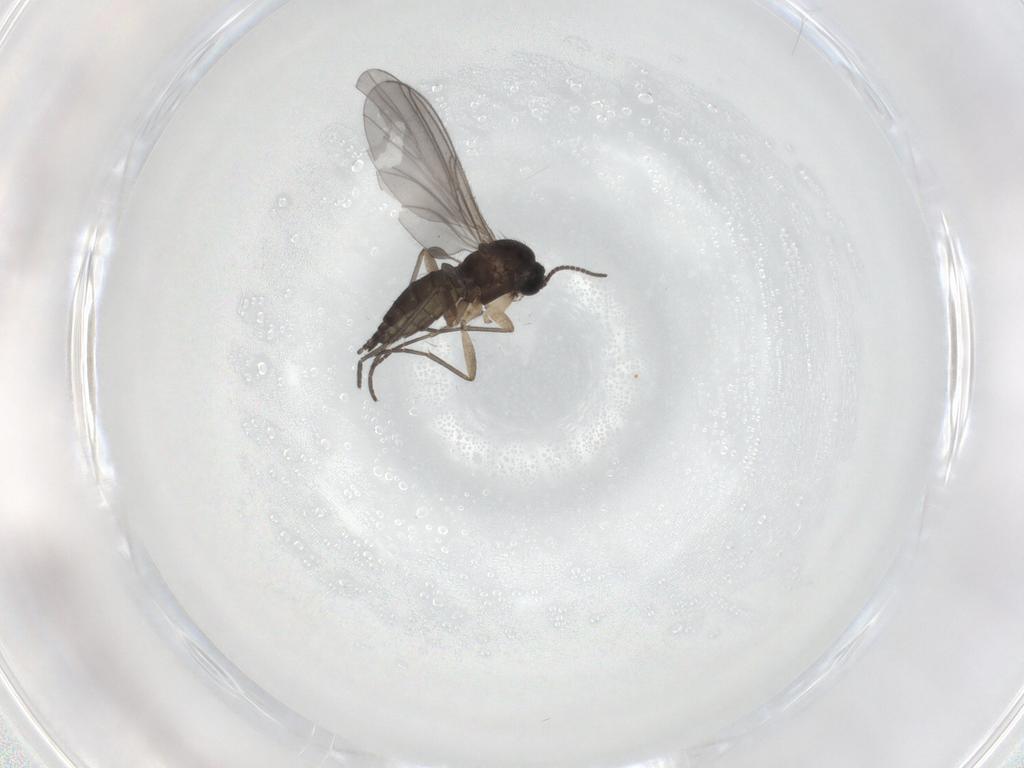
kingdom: Animalia
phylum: Arthropoda
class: Insecta
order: Diptera
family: Sciaridae
